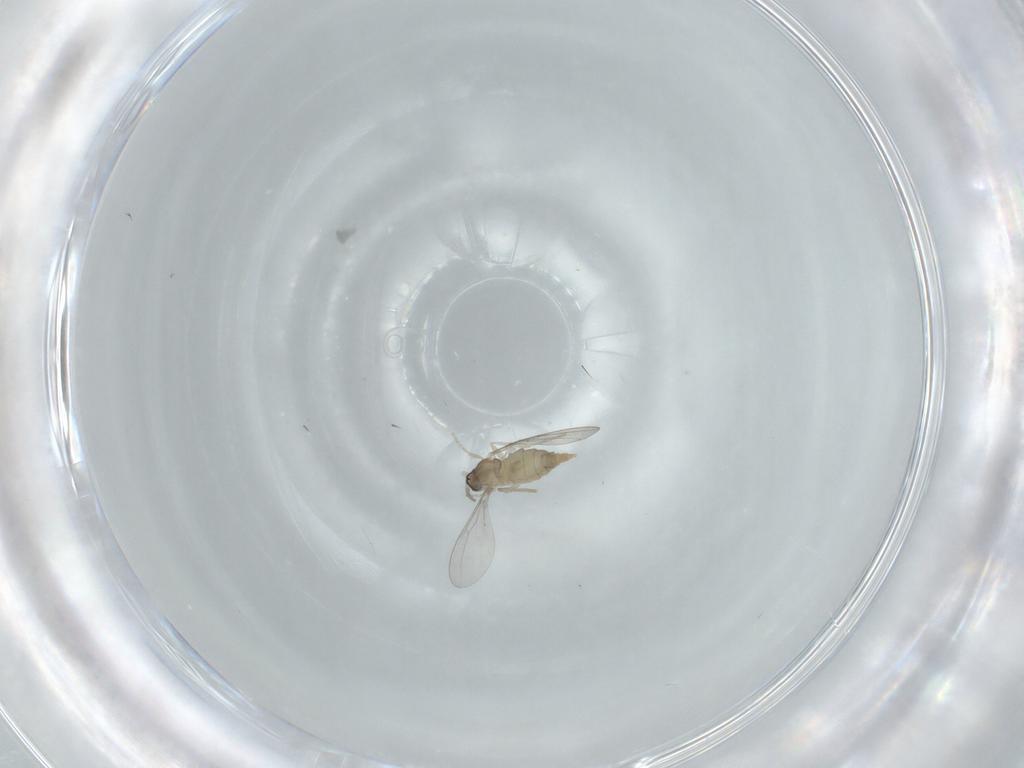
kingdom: Animalia
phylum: Arthropoda
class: Insecta
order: Diptera
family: Cecidomyiidae
